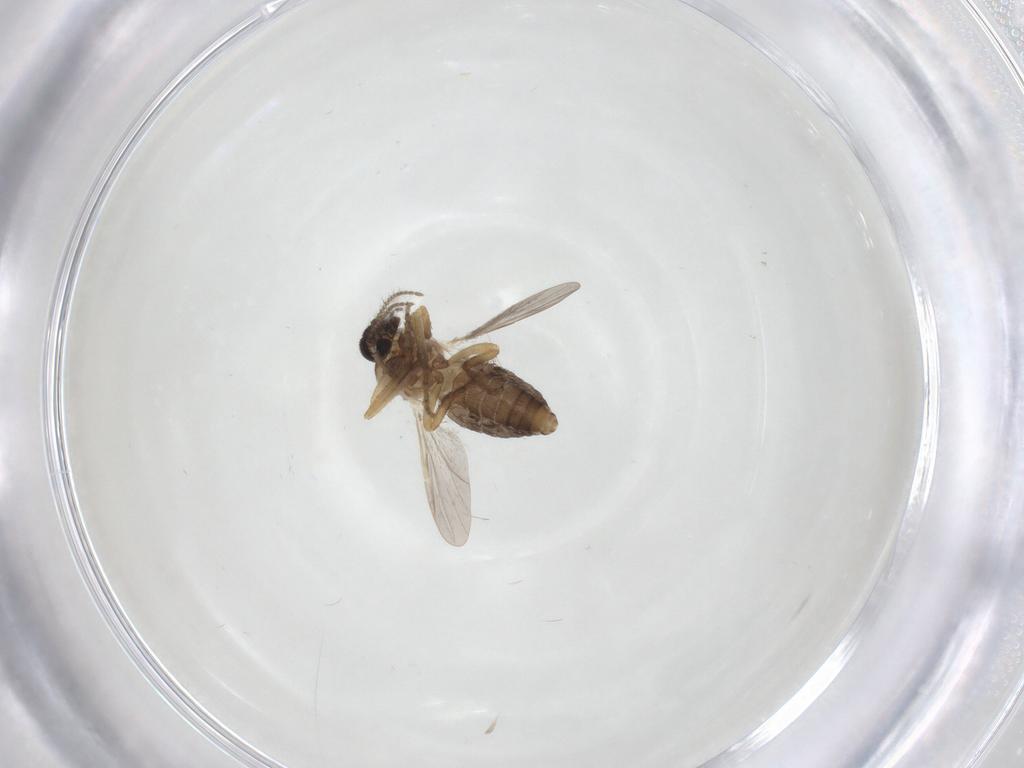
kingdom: Animalia
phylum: Arthropoda
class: Insecta
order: Diptera
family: Ceratopogonidae
